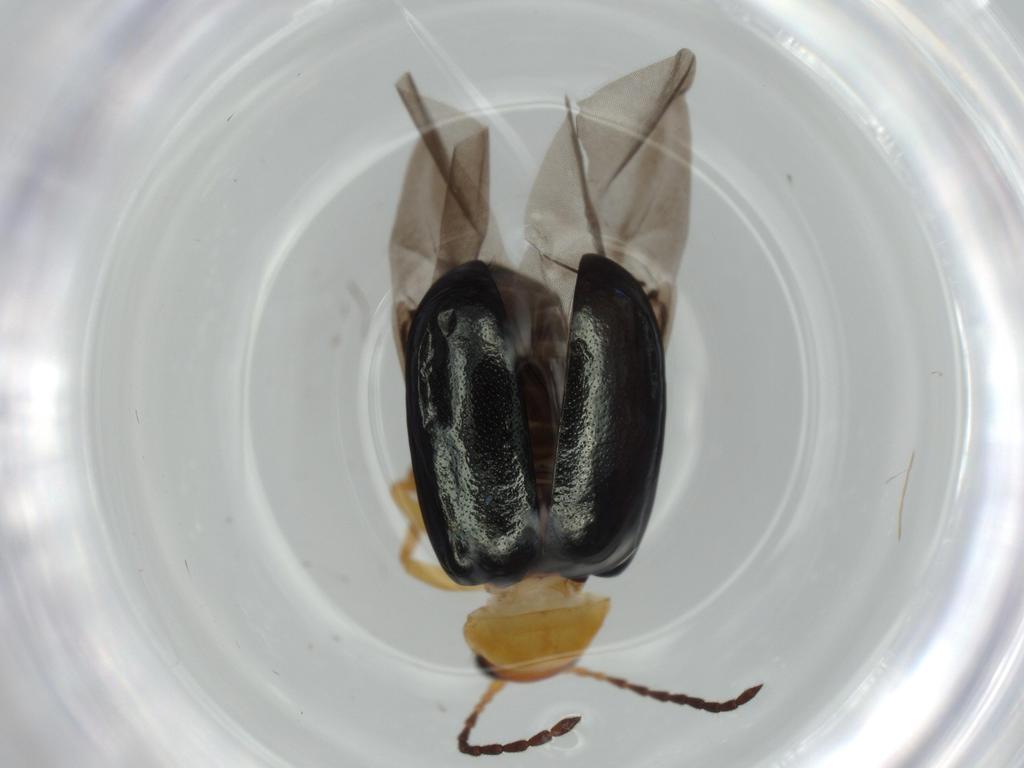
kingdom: Animalia
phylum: Arthropoda
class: Insecta
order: Coleoptera
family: Chrysomelidae
